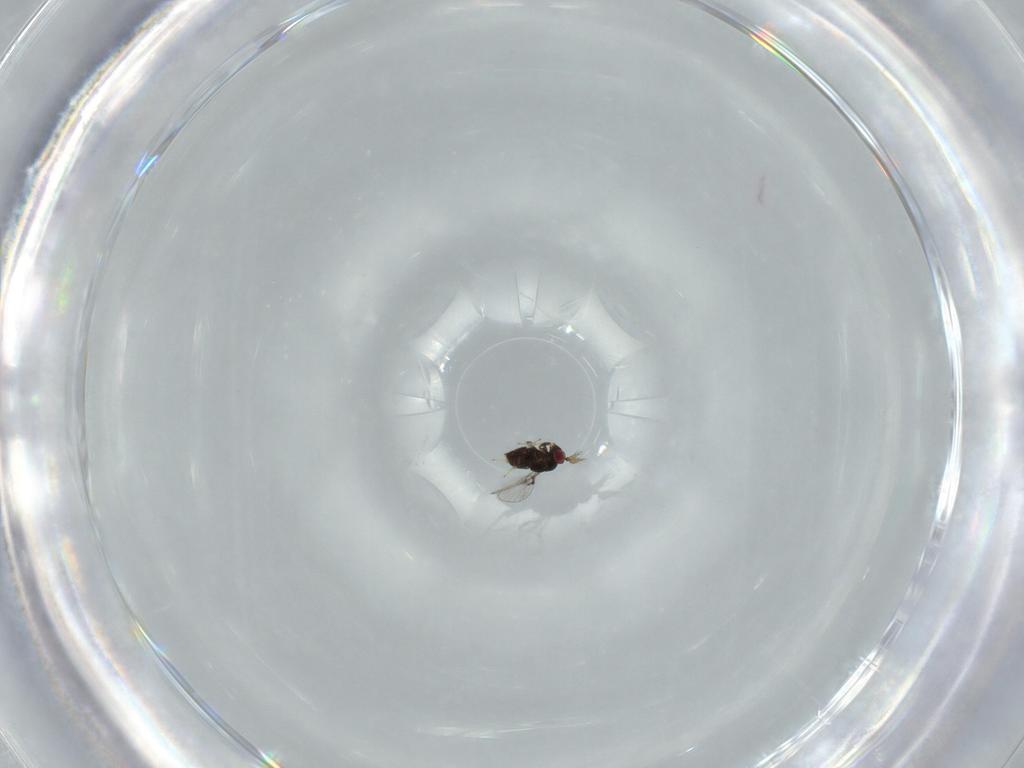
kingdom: Animalia
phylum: Arthropoda
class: Insecta
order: Hymenoptera
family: Trichogrammatidae
